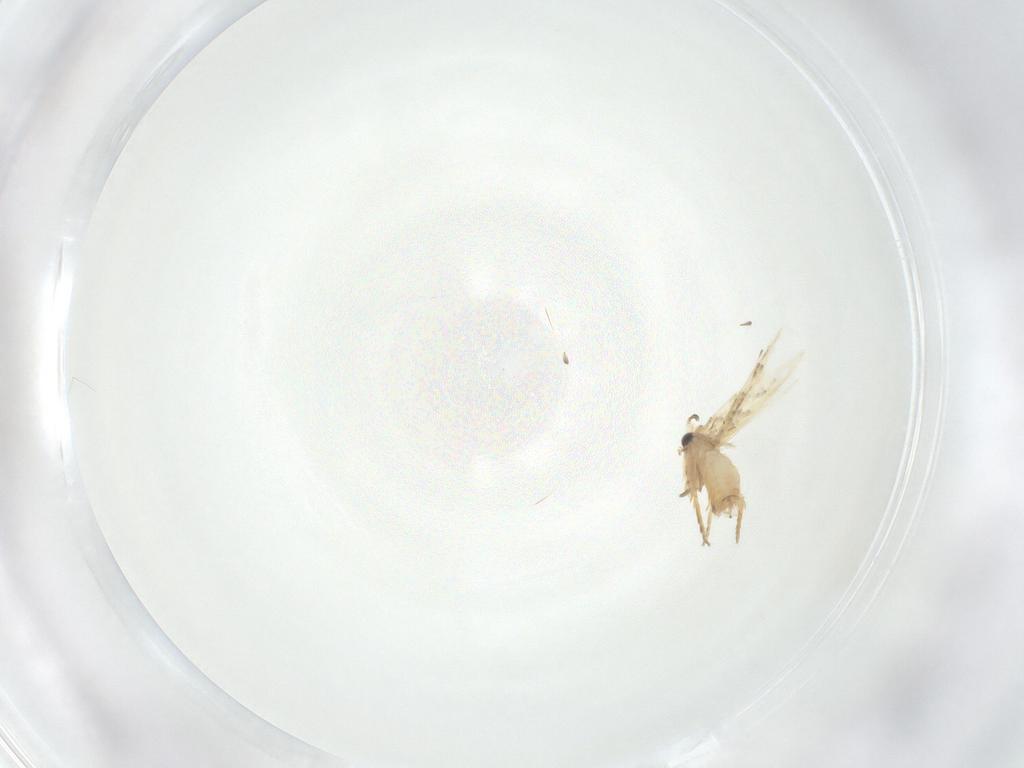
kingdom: Animalia
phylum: Arthropoda
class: Insecta
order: Lepidoptera
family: Nepticulidae
